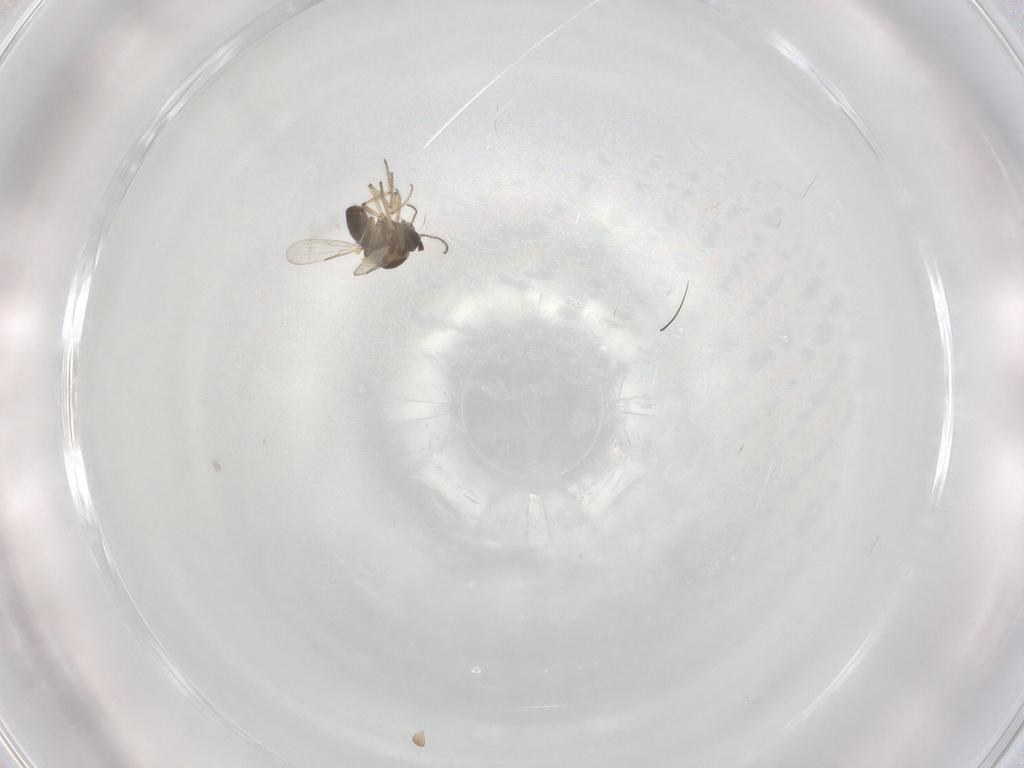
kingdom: Animalia
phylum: Arthropoda
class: Insecta
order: Diptera
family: Ceratopogonidae
